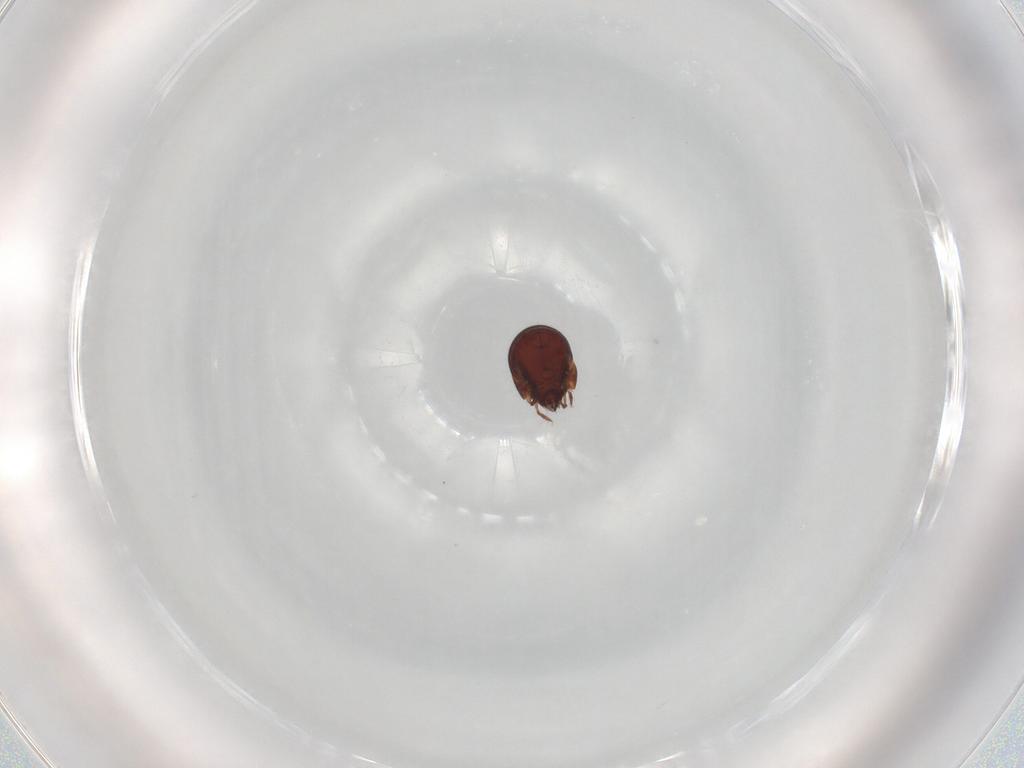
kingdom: Animalia
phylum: Arthropoda
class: Arachnida
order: Sarcoptiformes
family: Humerobatidae
